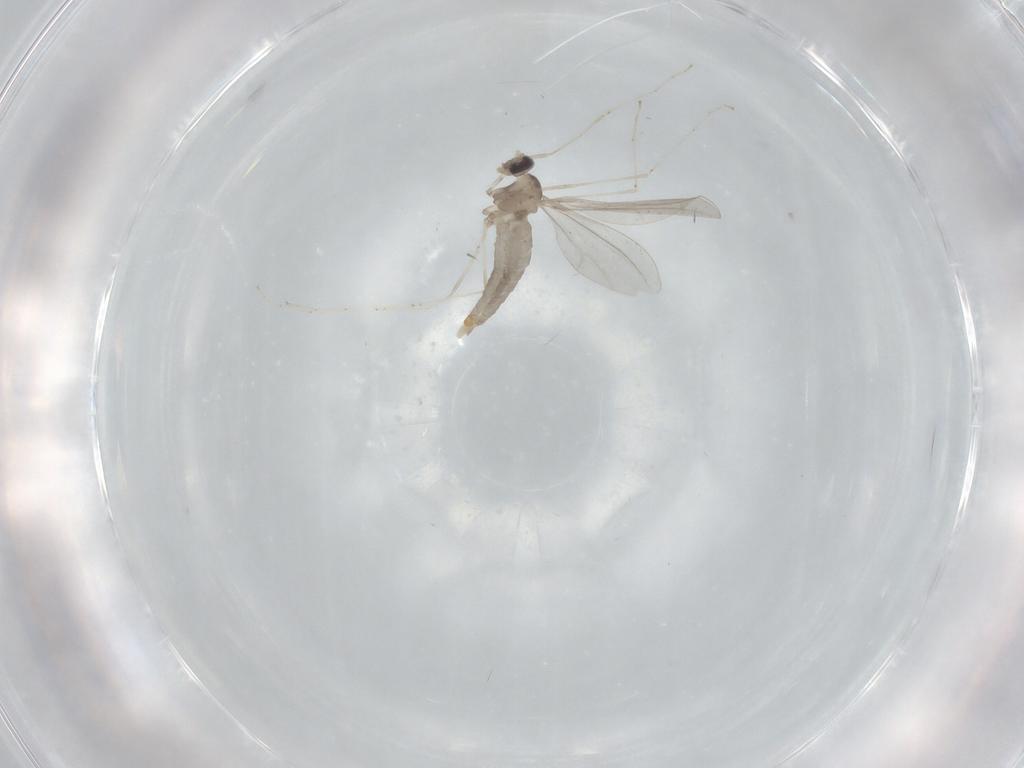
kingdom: Animalia
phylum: Arthropoda
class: Insecta
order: Diptera
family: Cecidomyiidae
